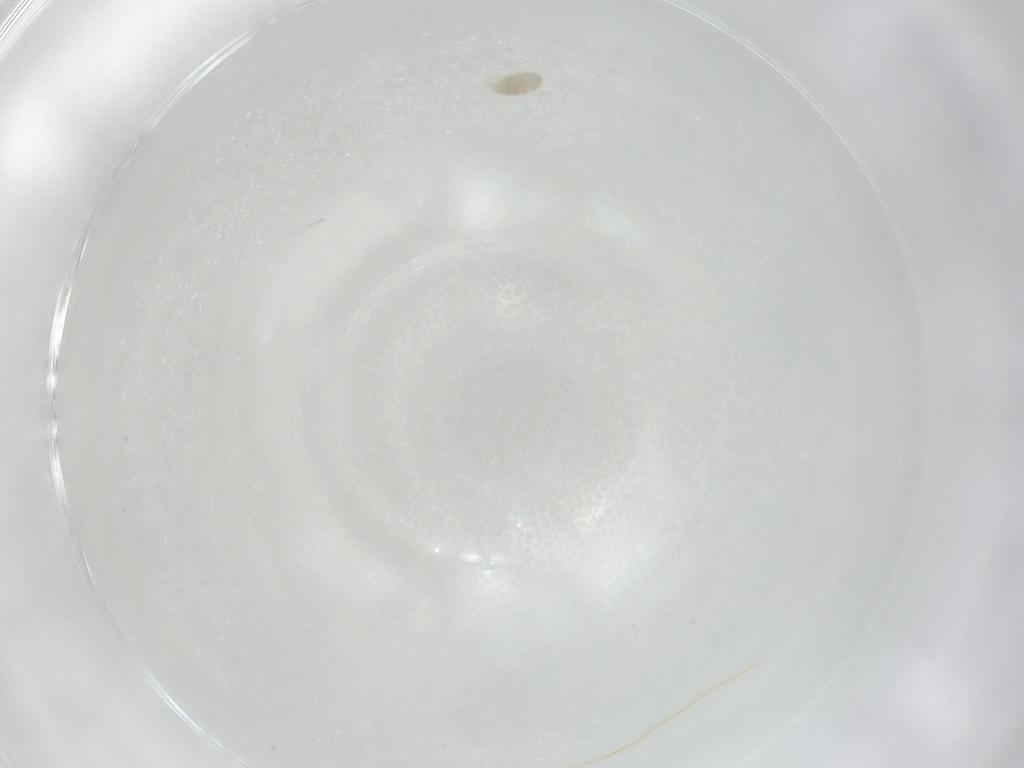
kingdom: Animalia
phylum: Arthropoda
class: Arachnida
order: Trombidiformes
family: Eupodidae
